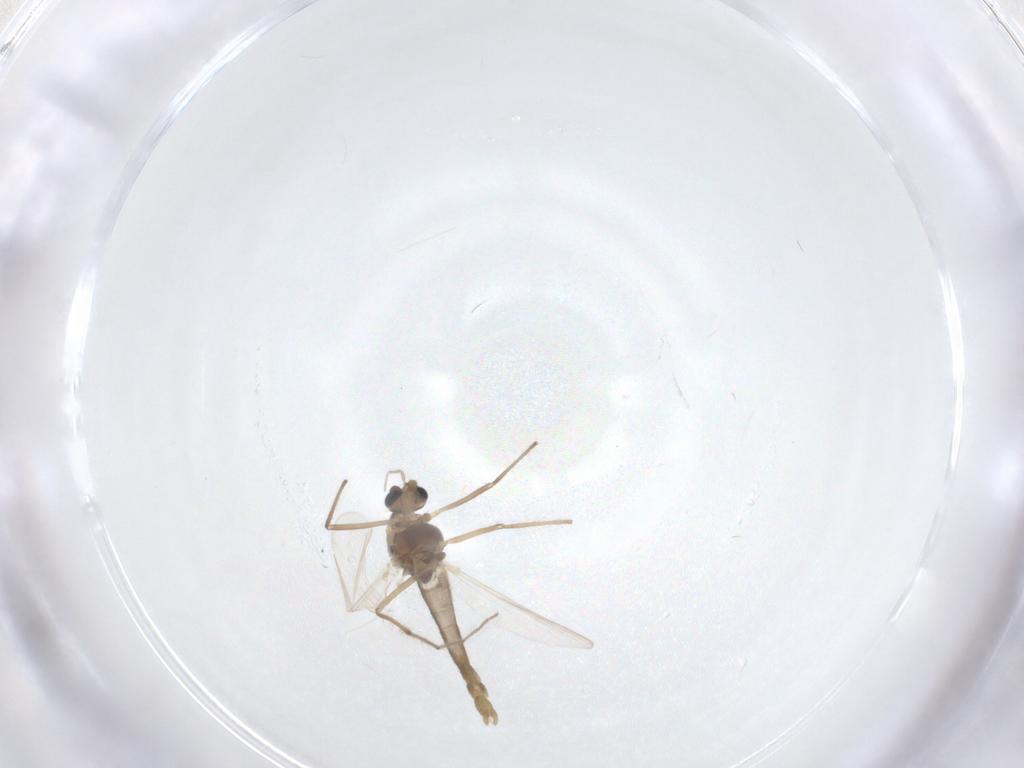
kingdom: Animalia
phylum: Arthropoda
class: Insecta
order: Diptera
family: Chironomidae
